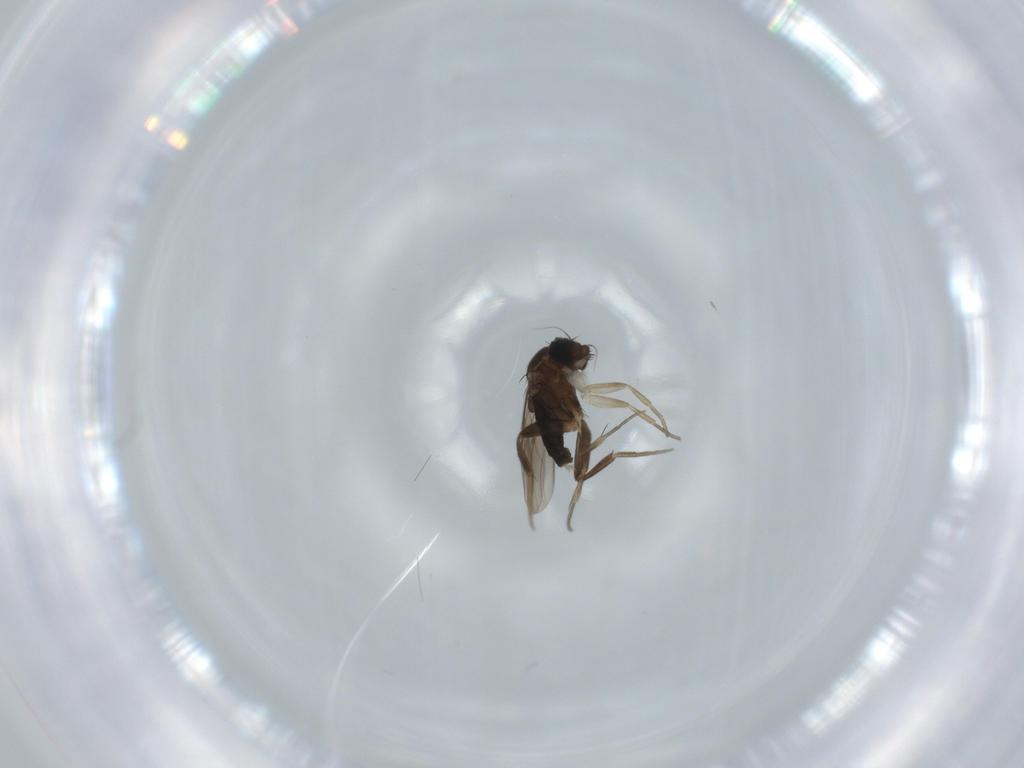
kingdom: Animalia
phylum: Arthropoda
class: Insecta
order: Diptera
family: Phoridae
